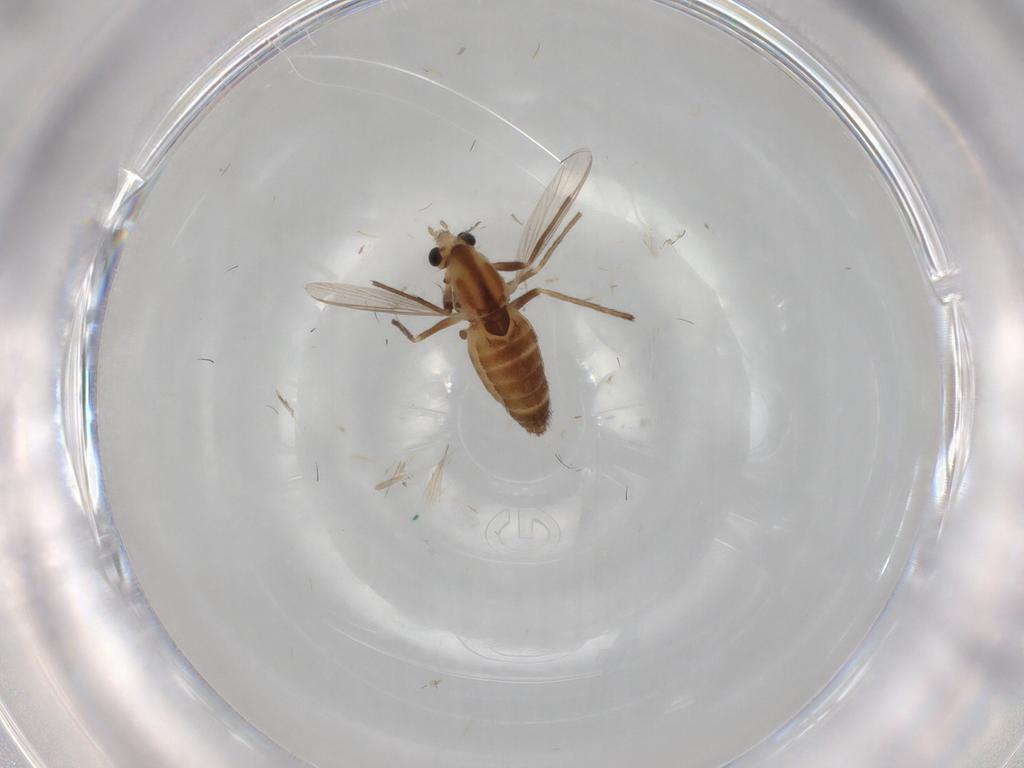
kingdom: Animalia
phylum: Arthropoda
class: Insecta
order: Diptera
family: Chironomidae
